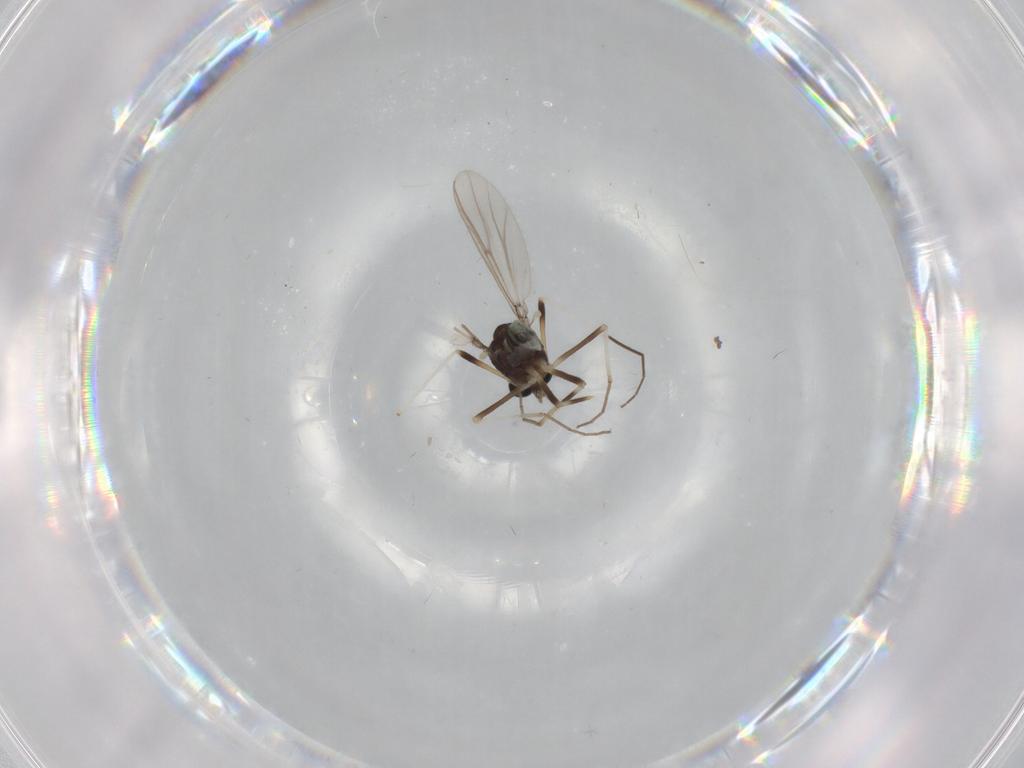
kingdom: Animalia
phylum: Arthropoda
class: Insecta
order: Diptera
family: Chironomidae
